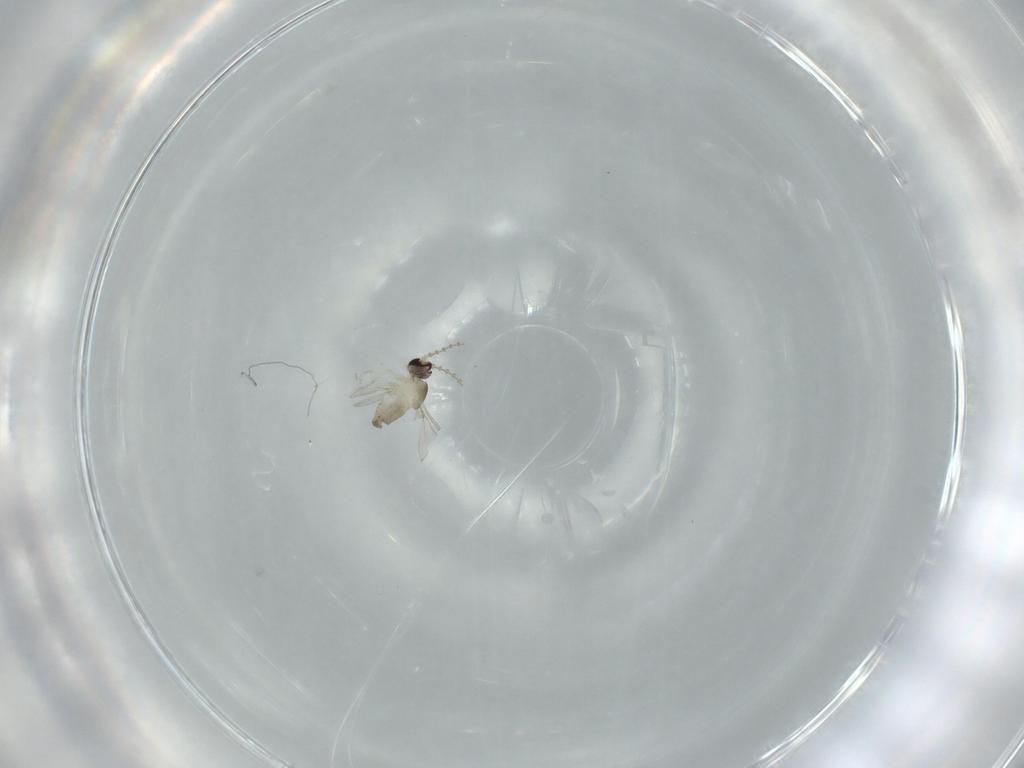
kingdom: Animalia
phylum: Arthropoda
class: Insecta
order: Diptera
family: Cecidomyiidae
